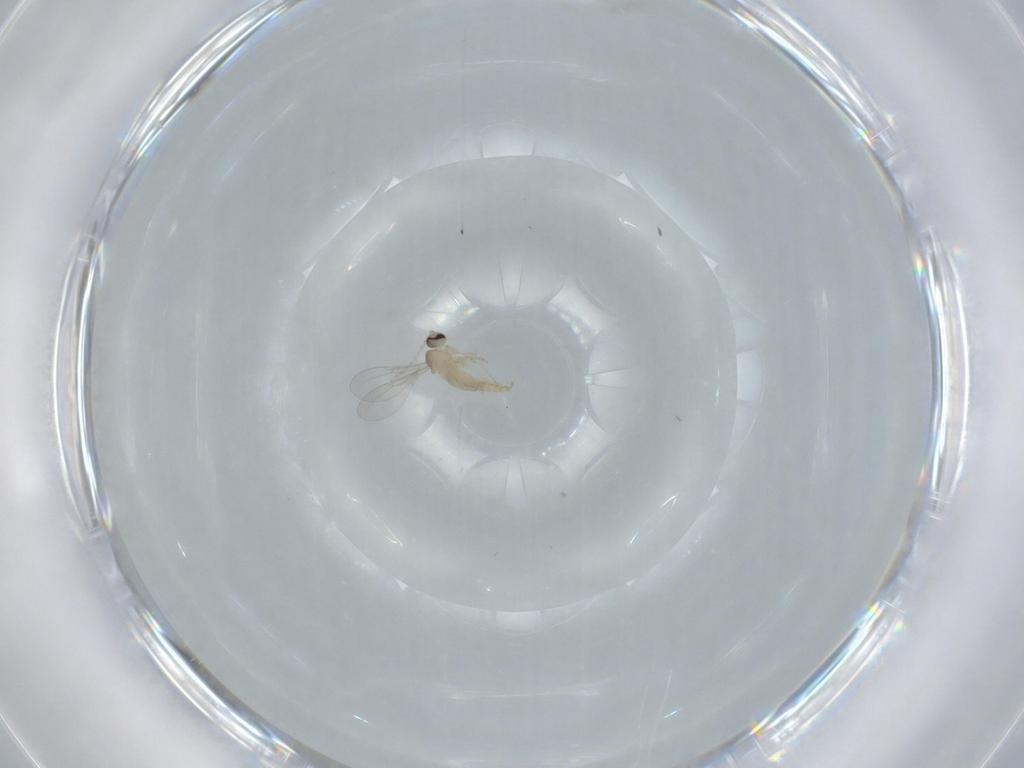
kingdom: Animalia
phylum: Arthropoda
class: Insecta
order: Diptera
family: Cecidomyiidae
